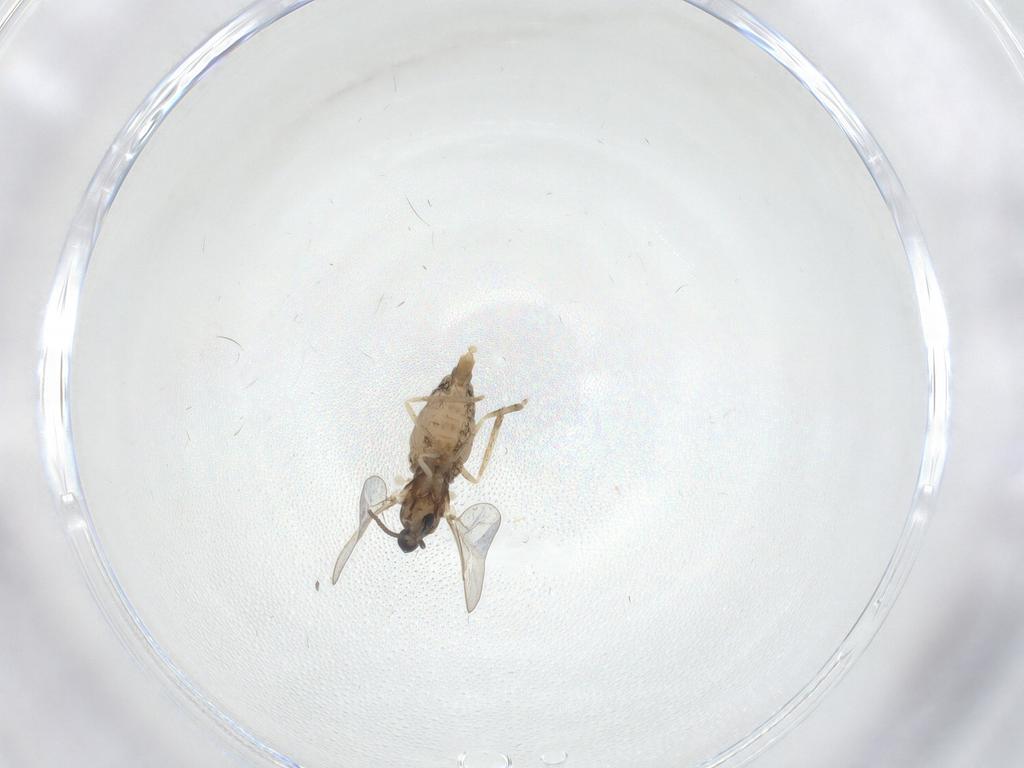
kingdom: Animalia
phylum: Arthropoda
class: Insecta
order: Diptera
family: Cecidomyiidae
